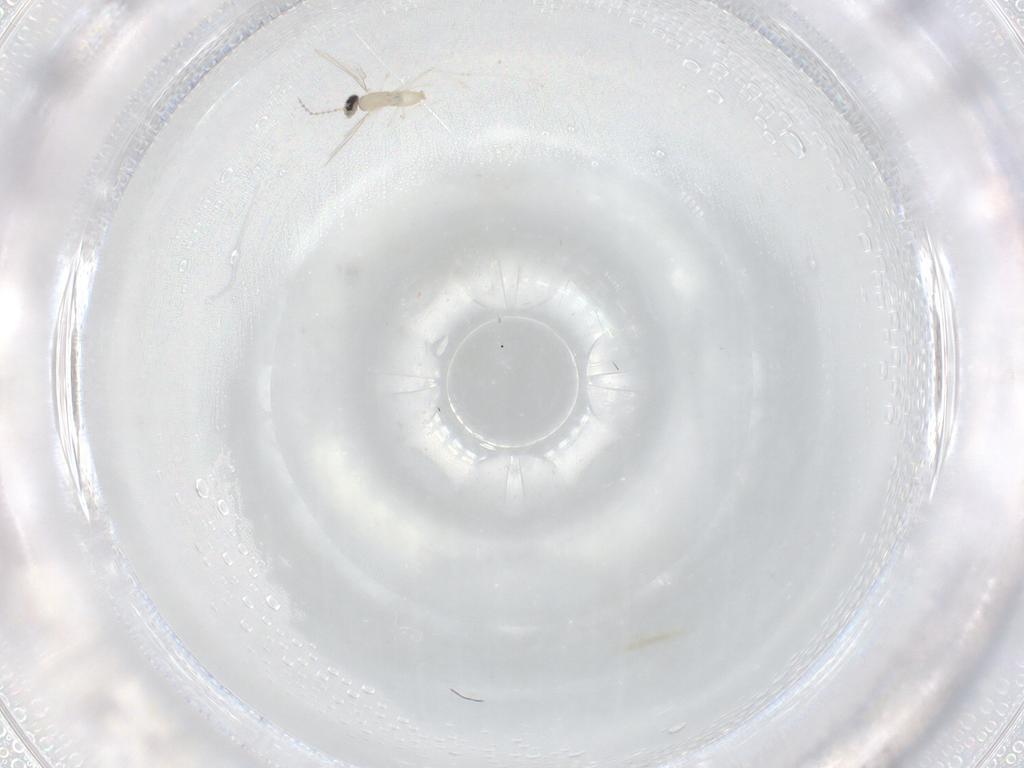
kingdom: Animalia
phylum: Arthropoda
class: Insecta
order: Diptera
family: Cecidomyiidae
